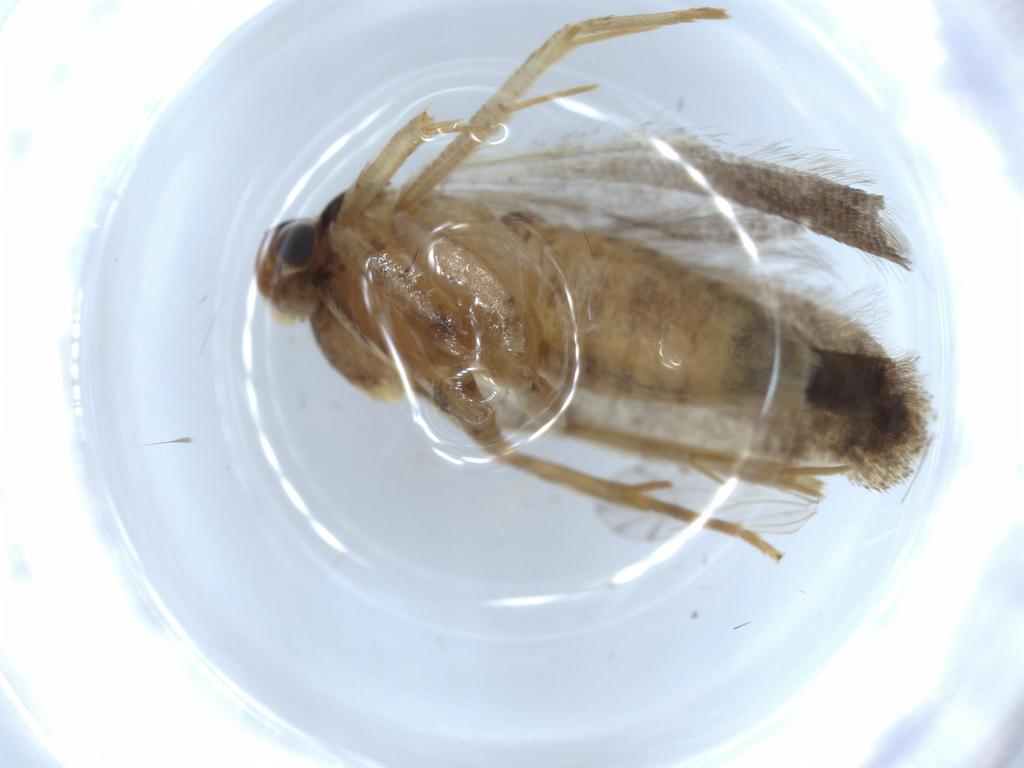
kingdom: Animalia
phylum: Arthropoda
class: Insecta
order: Lepidoptera
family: Gelechiidae
